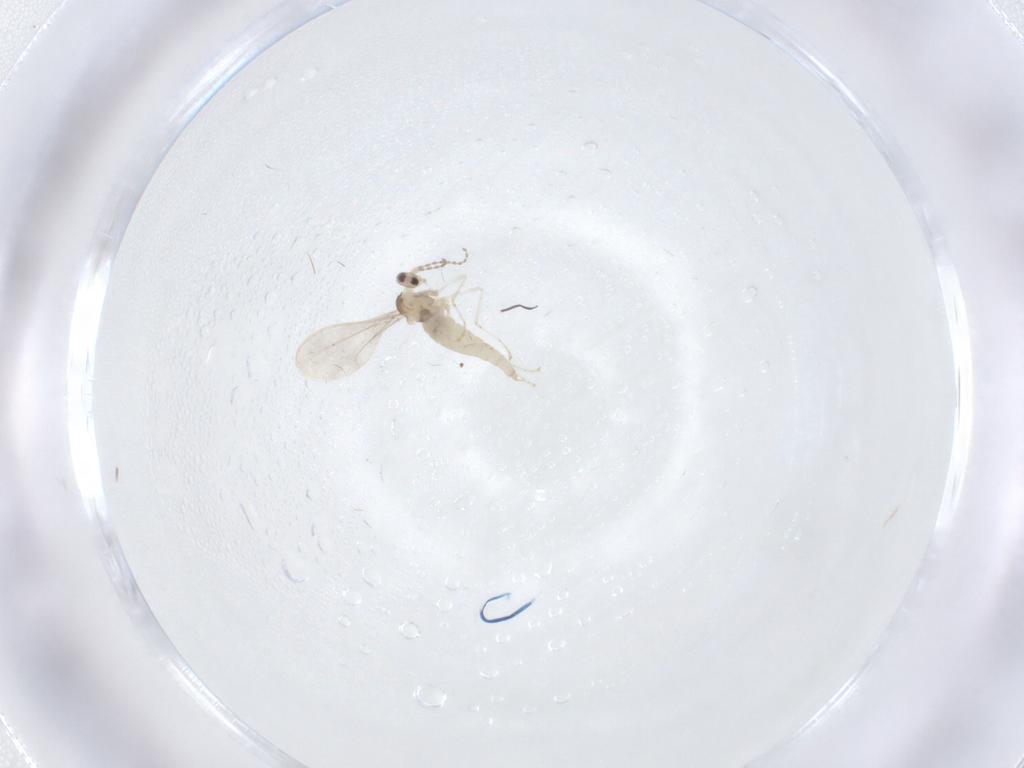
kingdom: Animalia
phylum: Arthropoda
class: Insecta
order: Diptera
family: Cecidomyiidae
